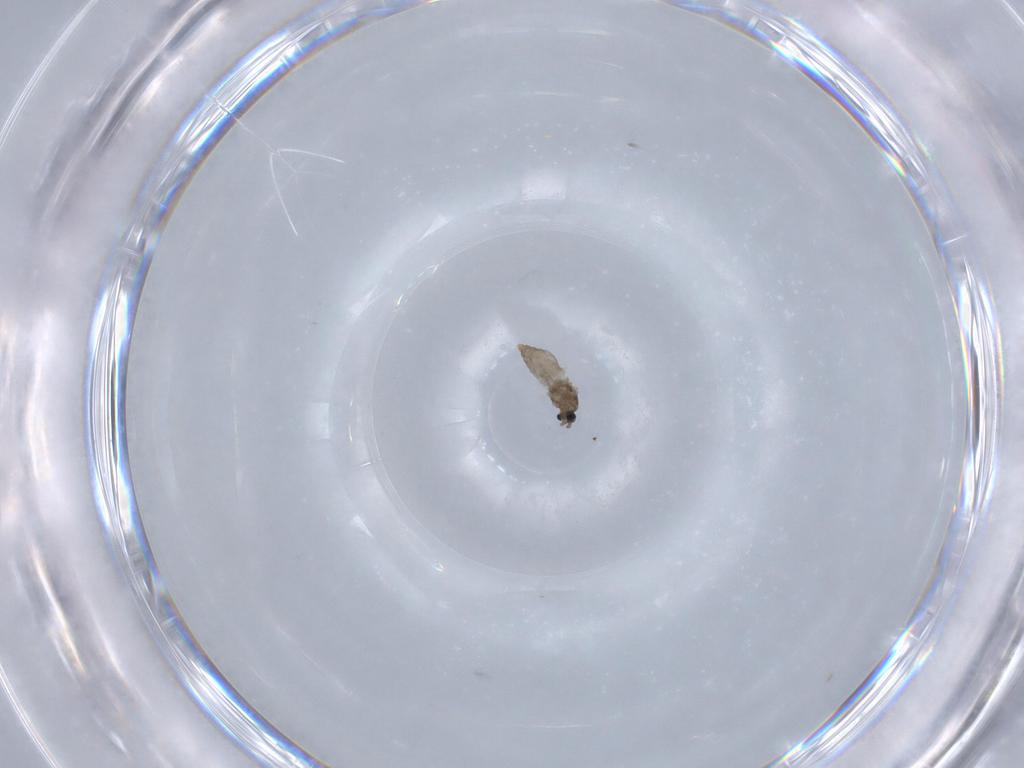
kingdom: Animalia
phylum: Arthropoda
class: Insecta
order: Diptera
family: Cecidomyiidae
